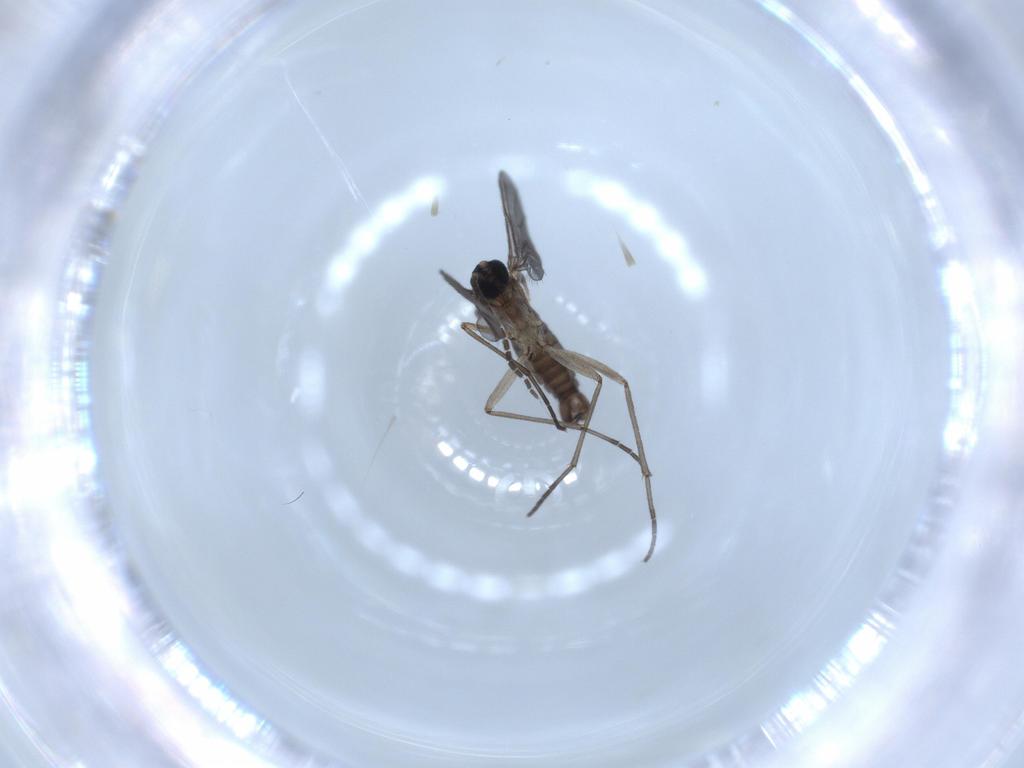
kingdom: Animalia
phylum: Arthropoda
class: Insecta
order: Diptera
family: Sciaridae
